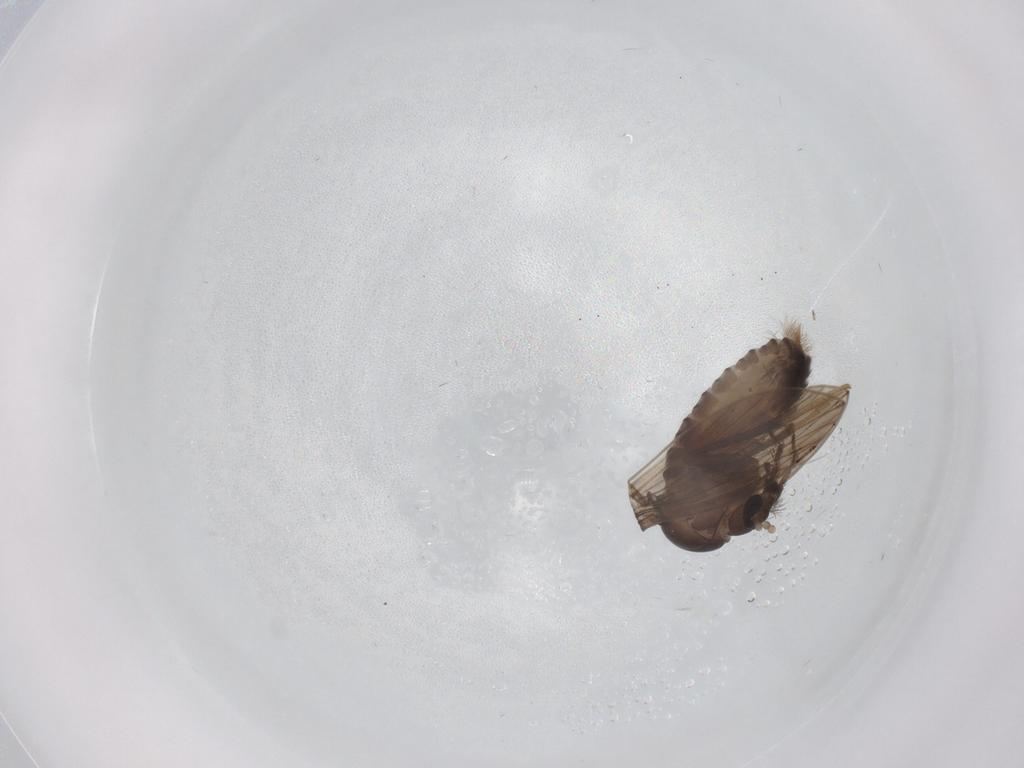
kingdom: Animalia
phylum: Arthropoda
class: Insecta
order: Diptera
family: Psychodidae
